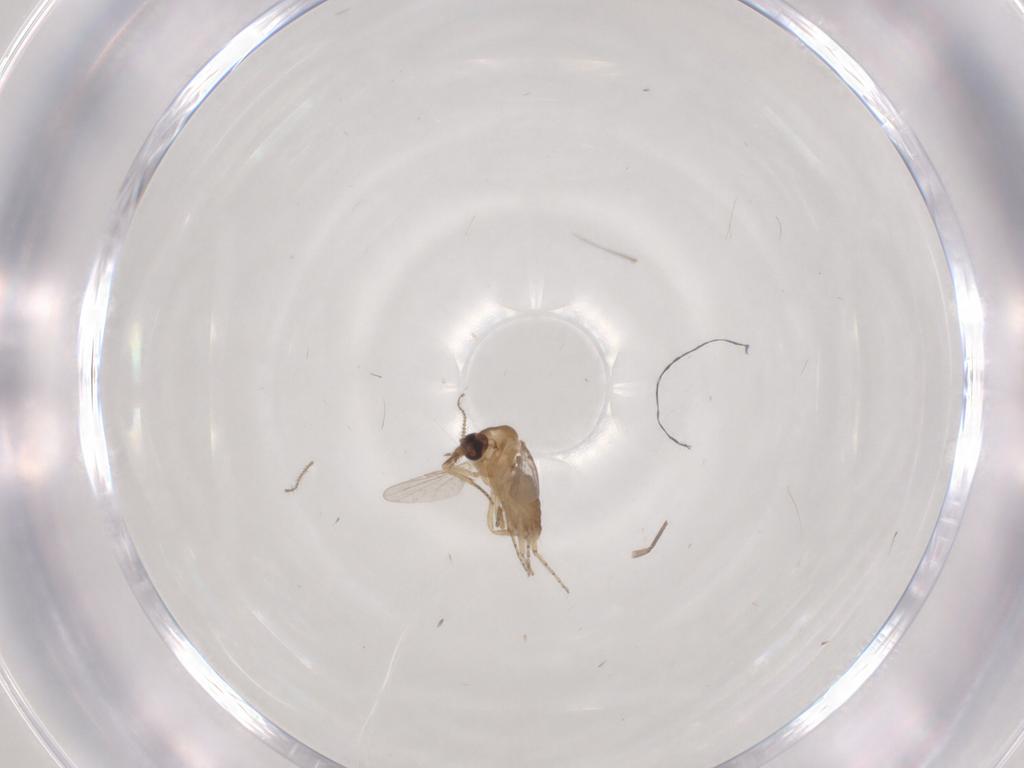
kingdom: Animalia
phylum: Arthropoda
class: Insecta
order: Diptera
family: Ceratopogonidae
